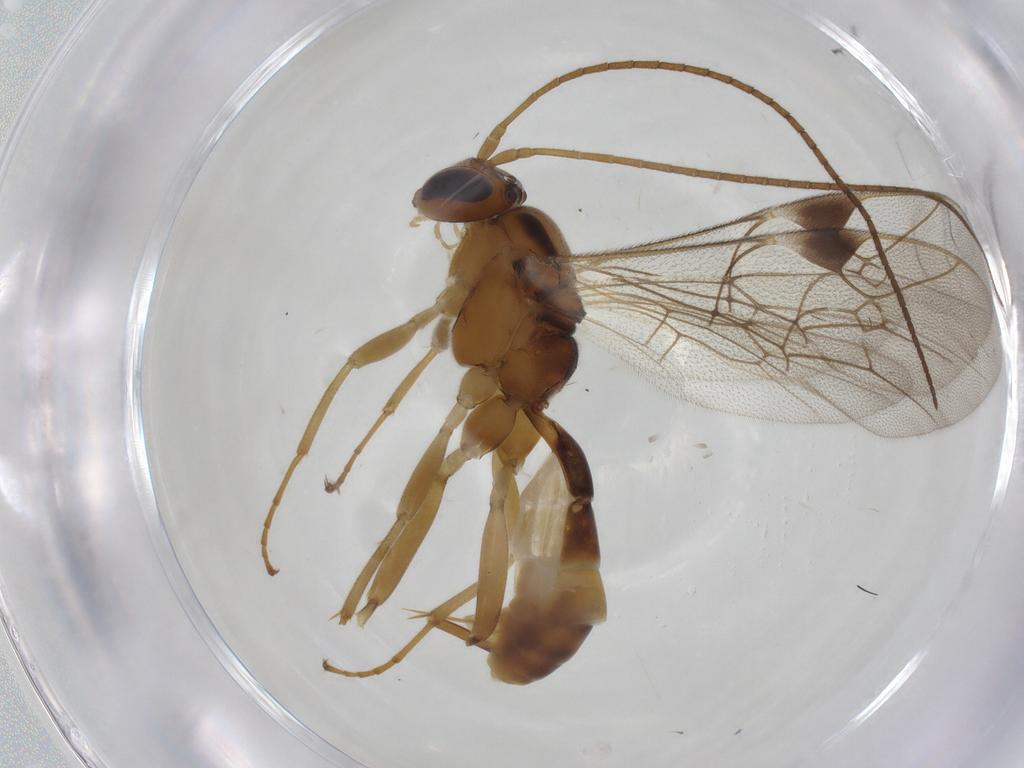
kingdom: Animalia
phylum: Arthropoda
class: Insecta
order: Hymenoptera
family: Ichneumonidae
